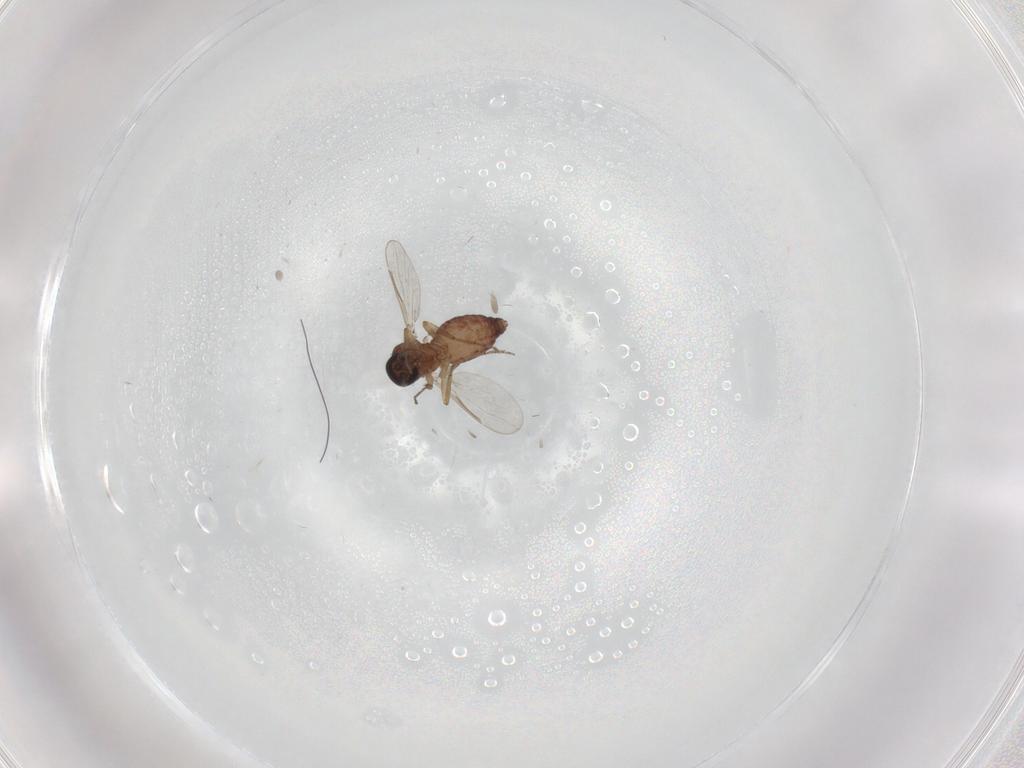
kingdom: Animalia
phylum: Arthropoda
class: Insecta
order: Diptera
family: Ceratopogonidae
